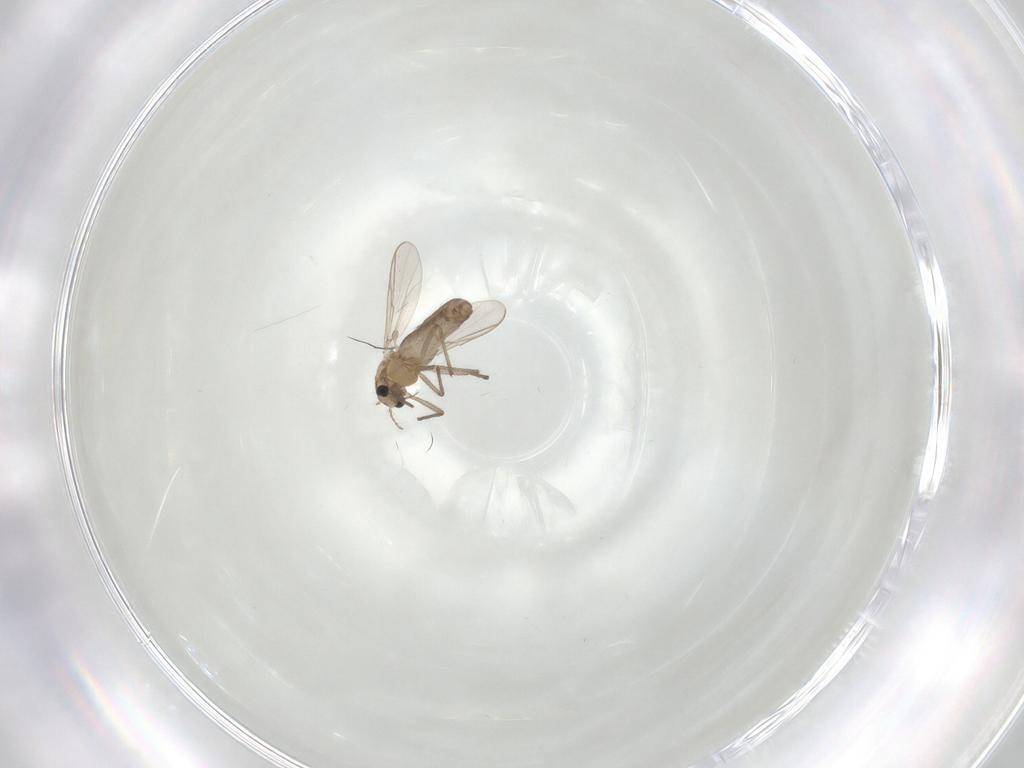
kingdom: Animalia
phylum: Arthropoda
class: Insecta
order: Diptera
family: Chironomidae
